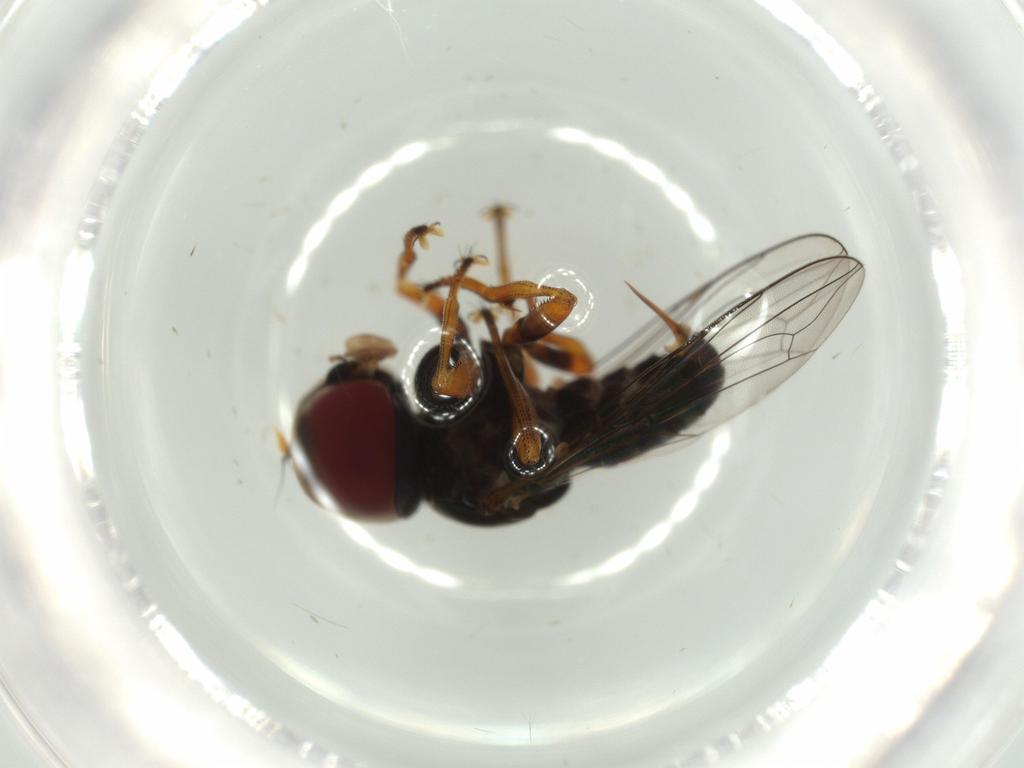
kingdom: Animalia
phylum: Arthropoda
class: Insecta
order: Diptera
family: Pipunculidae
